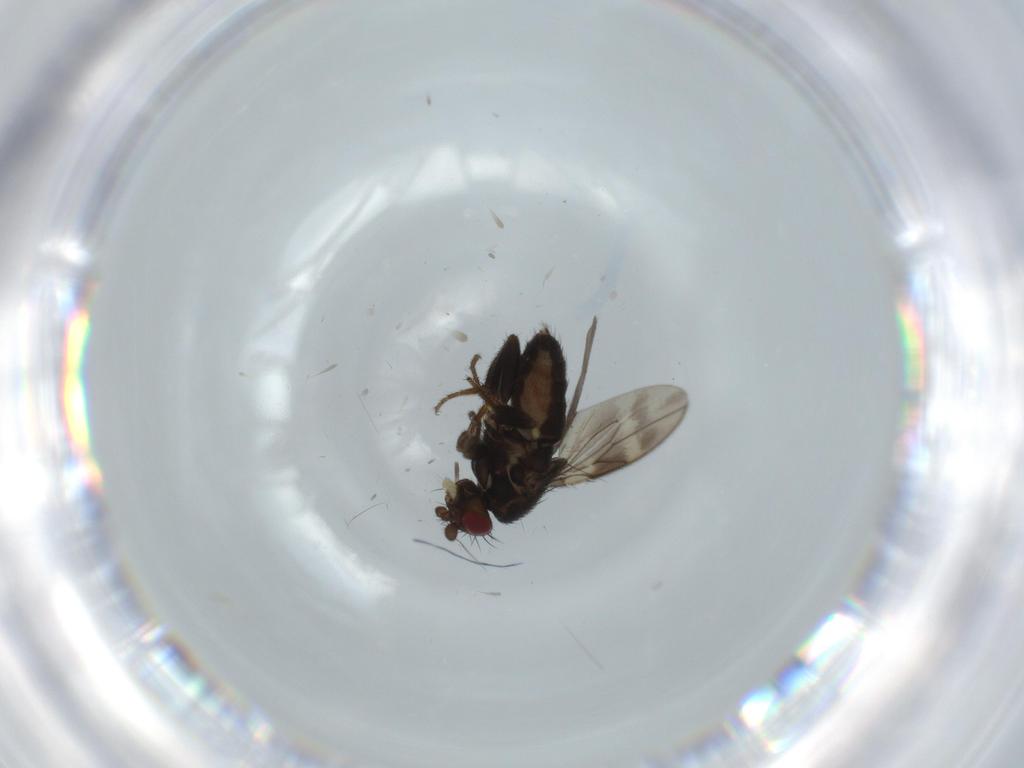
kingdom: Animalia
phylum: Arthropoda
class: Insecta
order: Diptera
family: Sphaeroceridae
